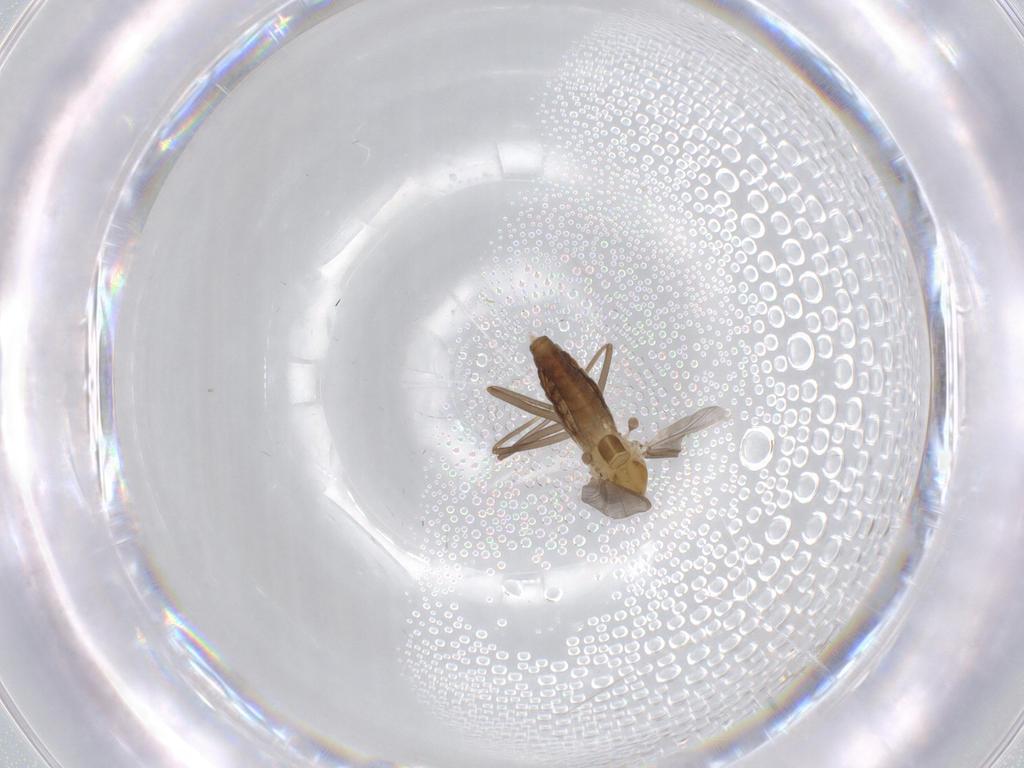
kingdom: Animalia
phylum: Arthropoda
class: Insecta
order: Diptera
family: Chironomidae
